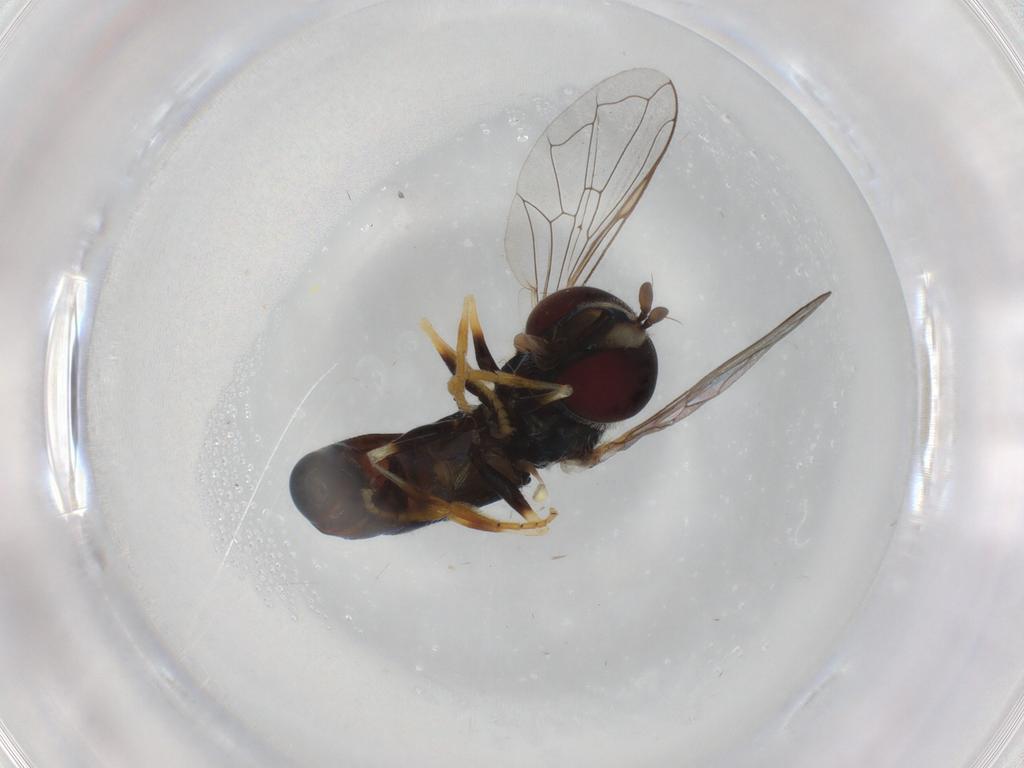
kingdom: Animalia
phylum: Arthropoda
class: Insecta
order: Diptera
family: Syrphidae
